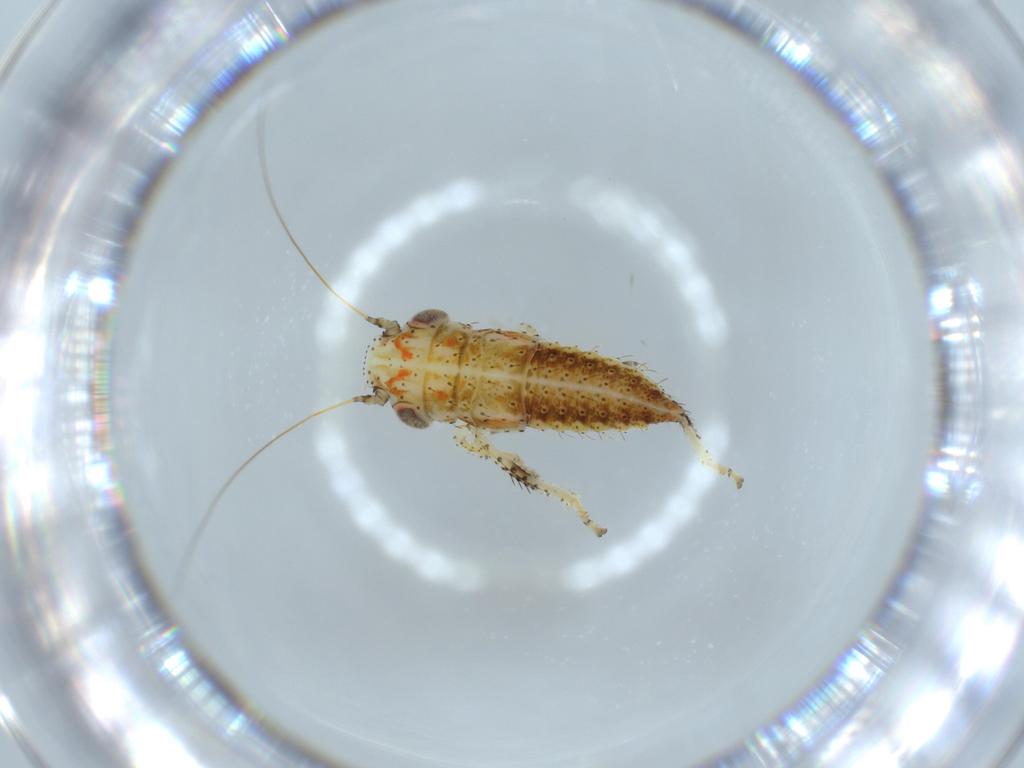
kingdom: Animalia
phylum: Arthropoda
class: Insecta
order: Hemiptera
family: Cicadellidae
